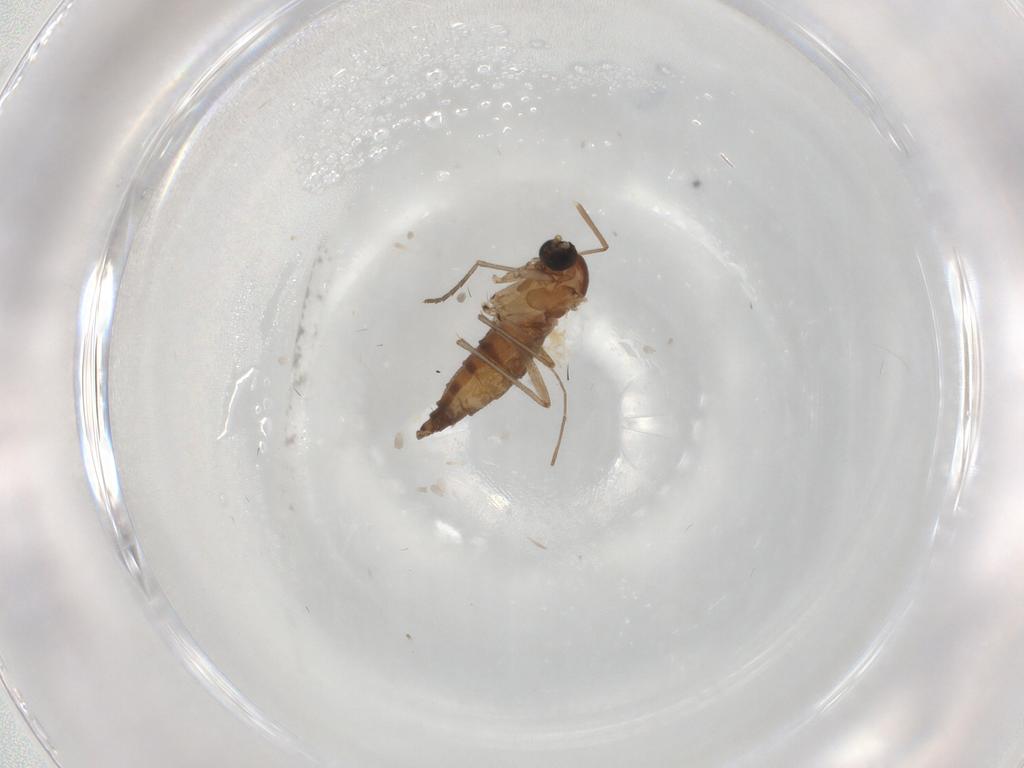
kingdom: Animalia
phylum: Arthropoda
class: Insecta
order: Diptera
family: Sciaridae
